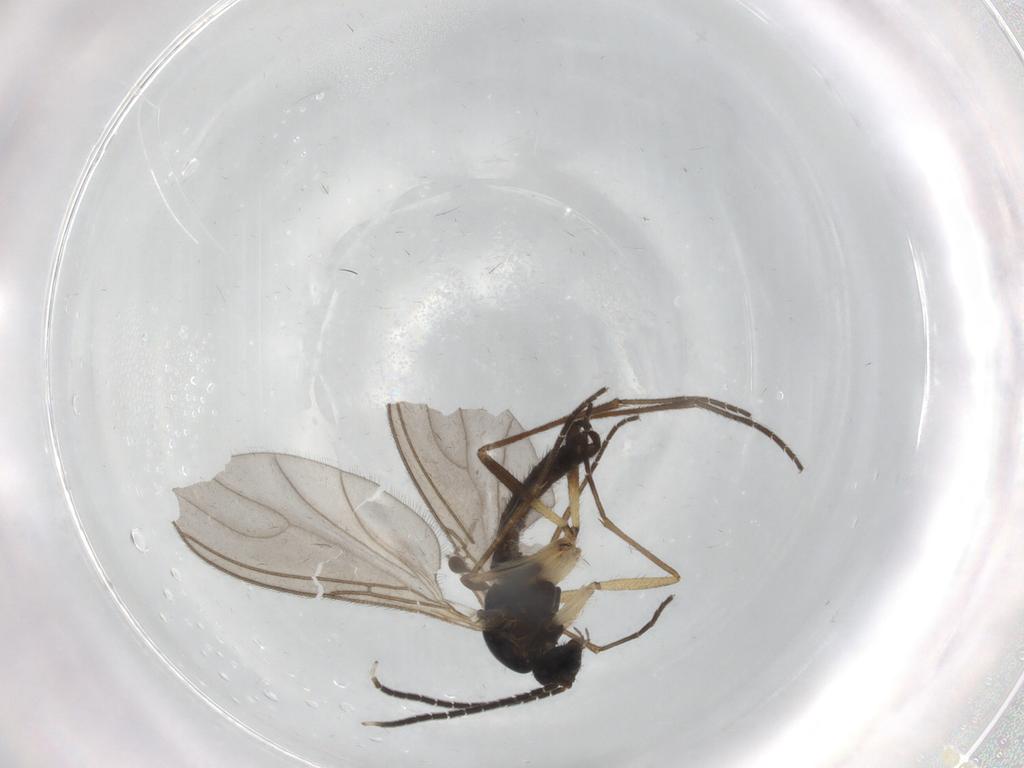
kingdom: Animalia
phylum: Arthropoda
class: Insecta
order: Diptera
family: Sciaridae
